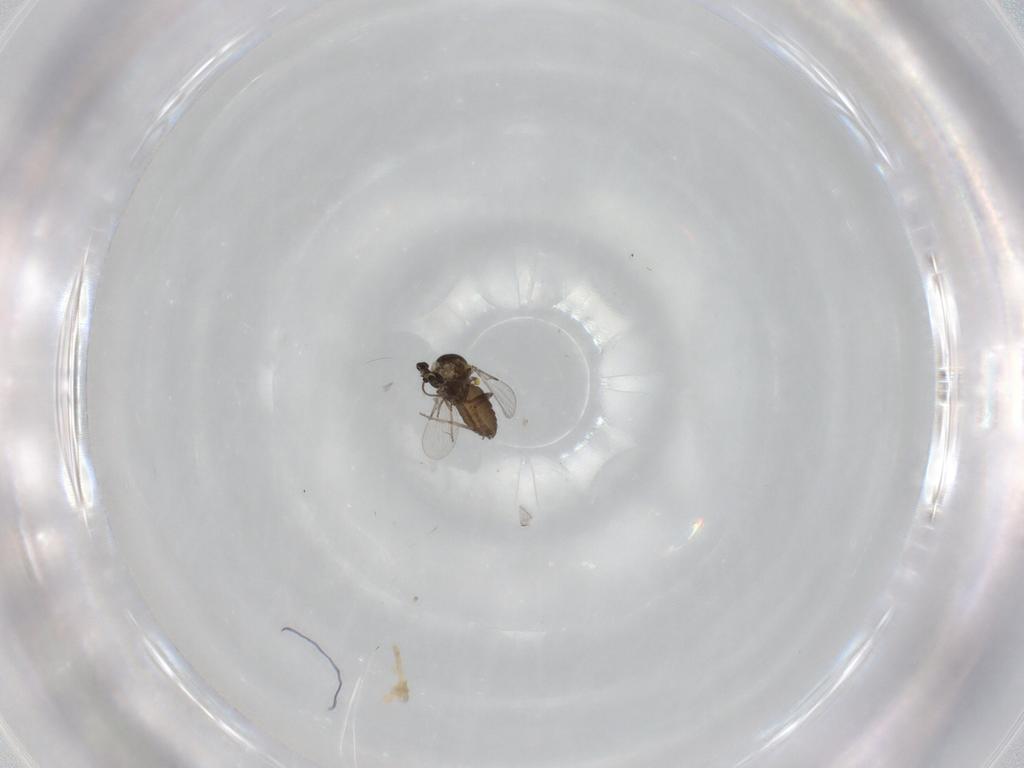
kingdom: Animalia
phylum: Arthropoda
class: Insecta
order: Diptera
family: Ceratopogonidae
